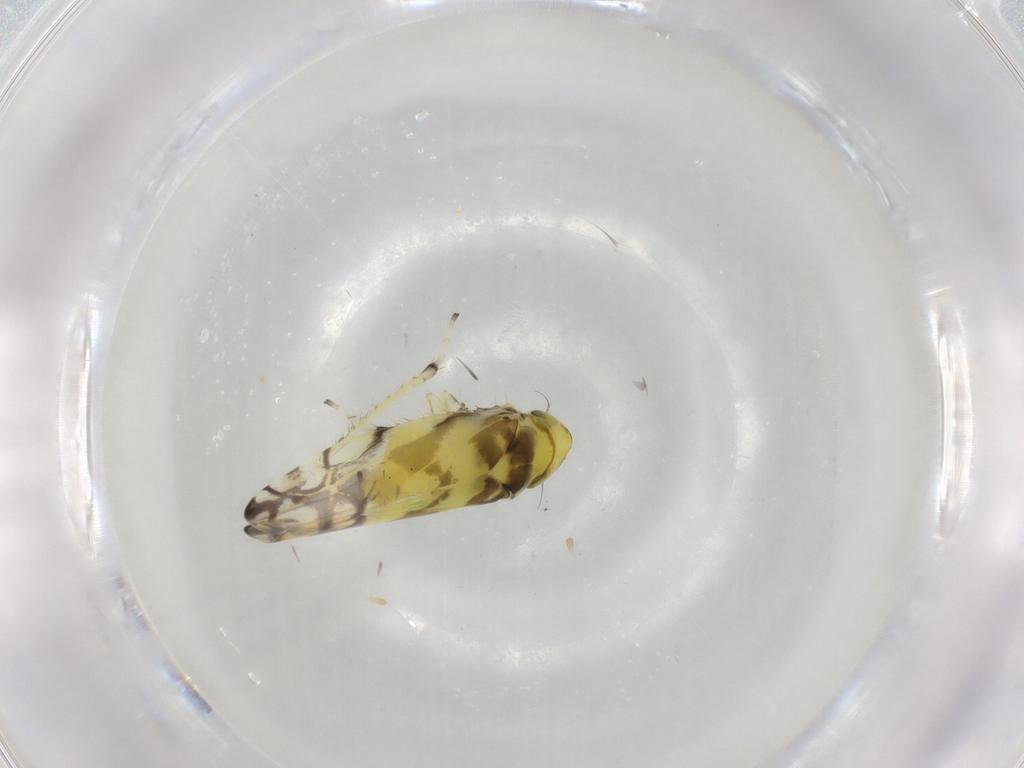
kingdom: Animalia
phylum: Arthropoda
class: Insecta
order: Hemiptera
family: Cicadellidae
